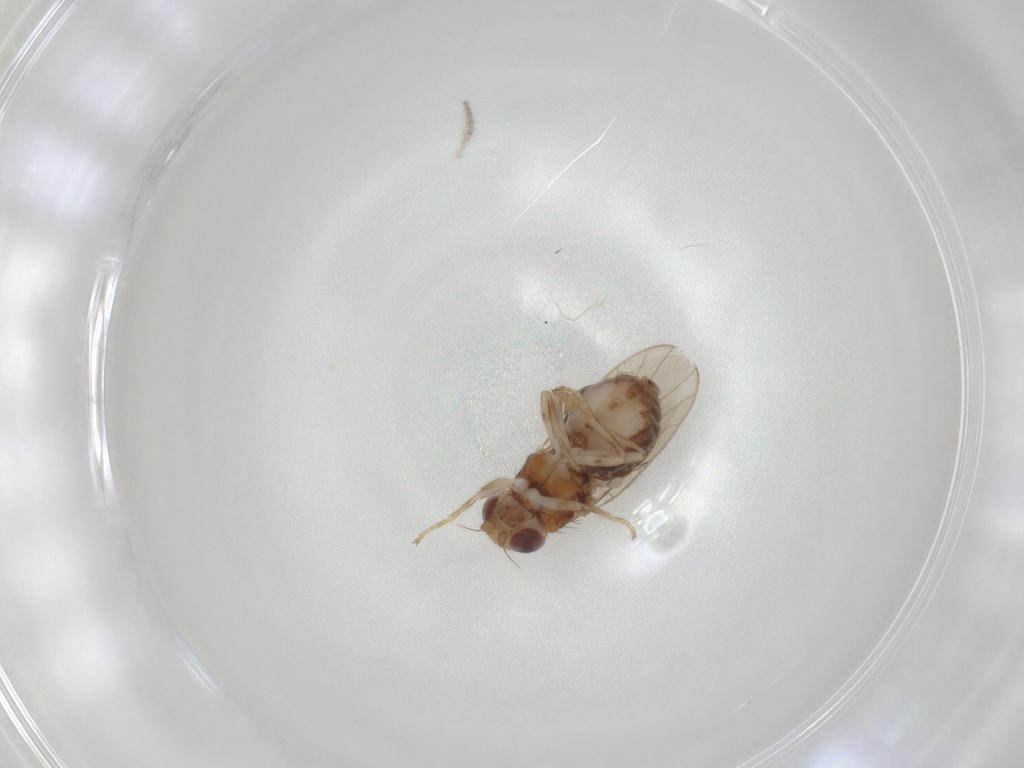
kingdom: Animalia
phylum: Arthropoda
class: Insecta
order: Diptera
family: Chloropidae
